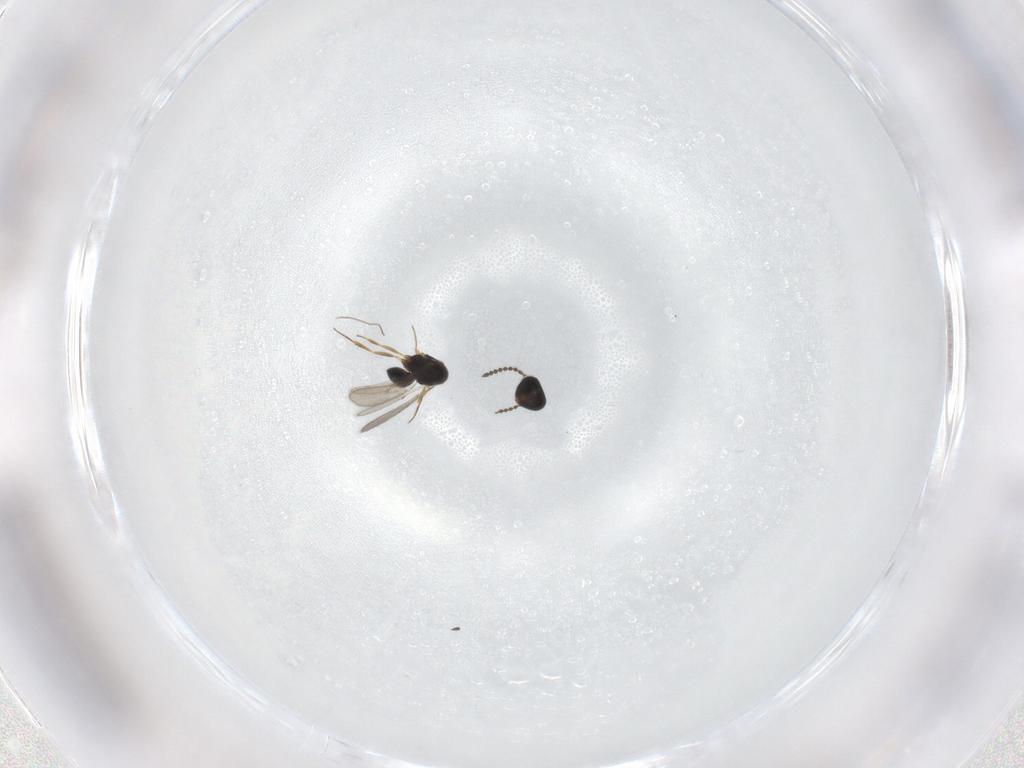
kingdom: Animalia
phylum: Arthropoda
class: Insecta
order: Hymenoptera
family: Scelionidae
